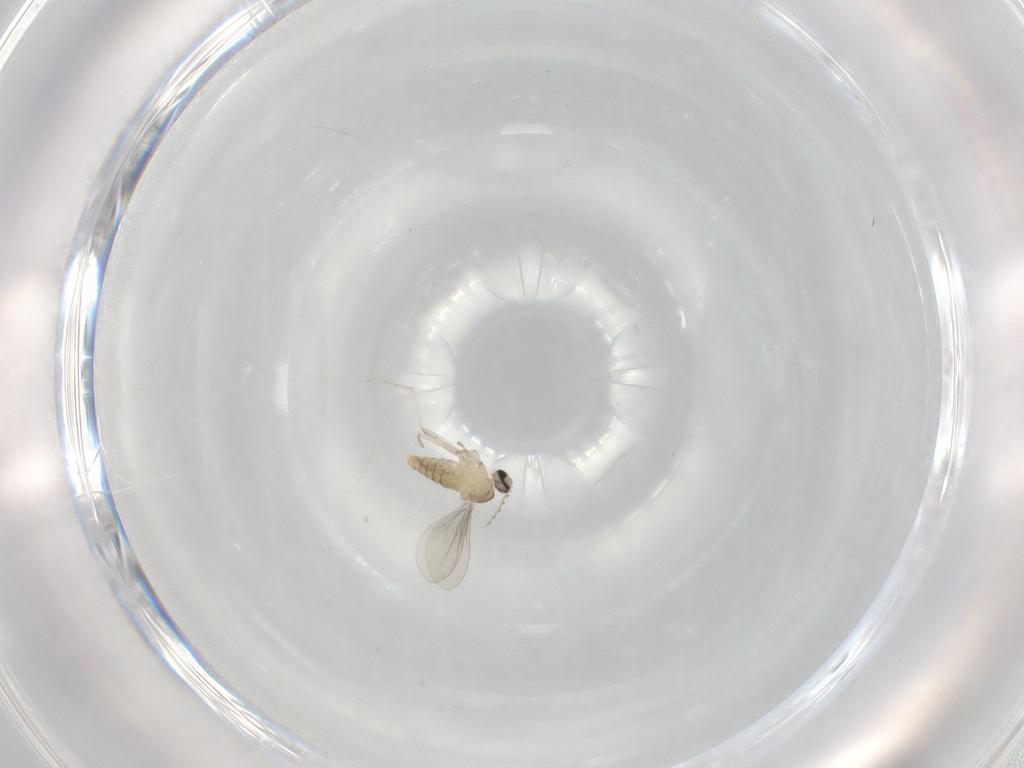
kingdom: Animalia
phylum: Arthropoda
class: Insecta
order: Diptera
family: Cecidomyiidae
